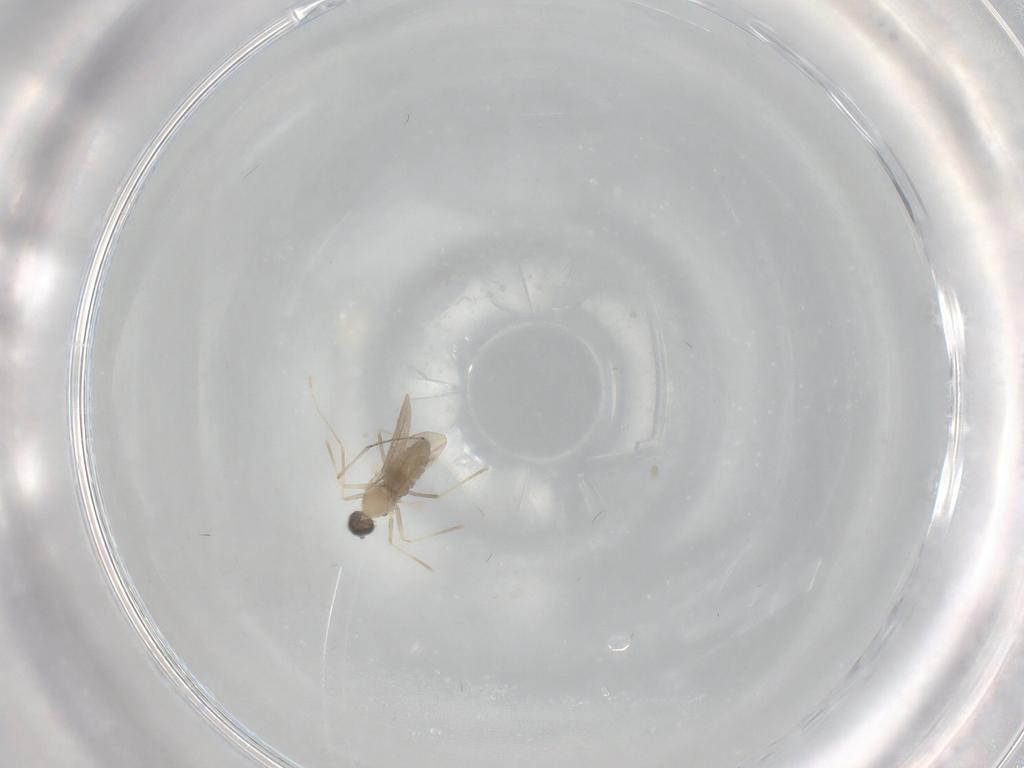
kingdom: Animalia
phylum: Arthropoda
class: Insecta
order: Diptera
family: Cecidomyiidae
